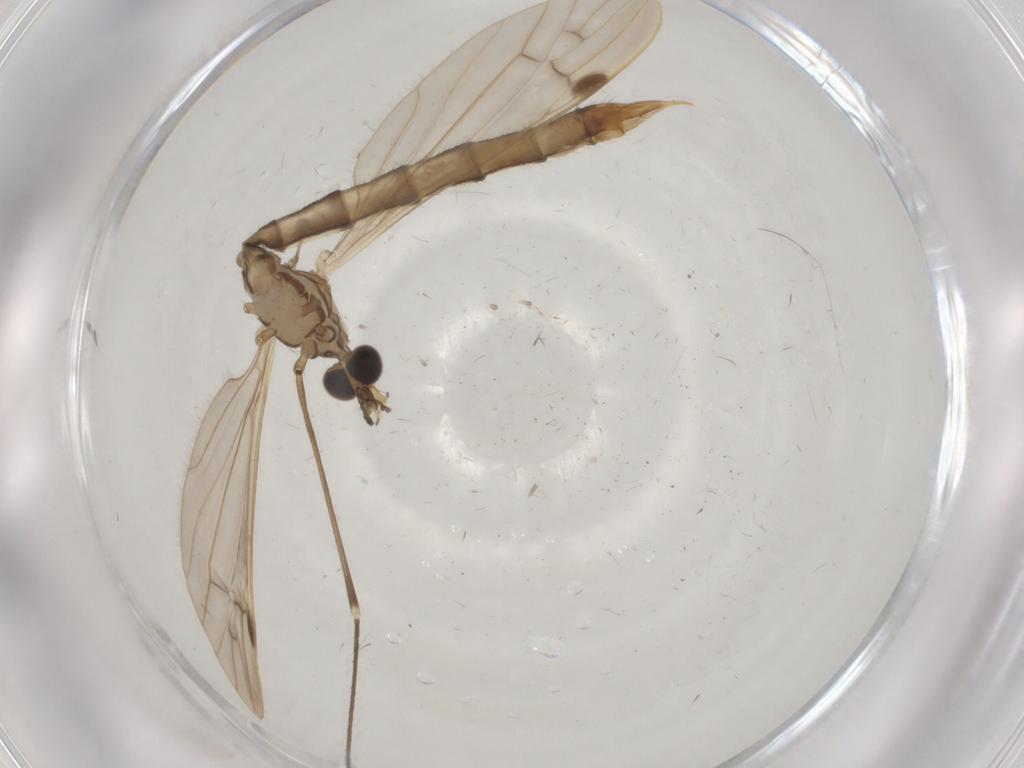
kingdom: Animalia
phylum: Arthropoda
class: Insecta
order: Diptera
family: Limoniidae
